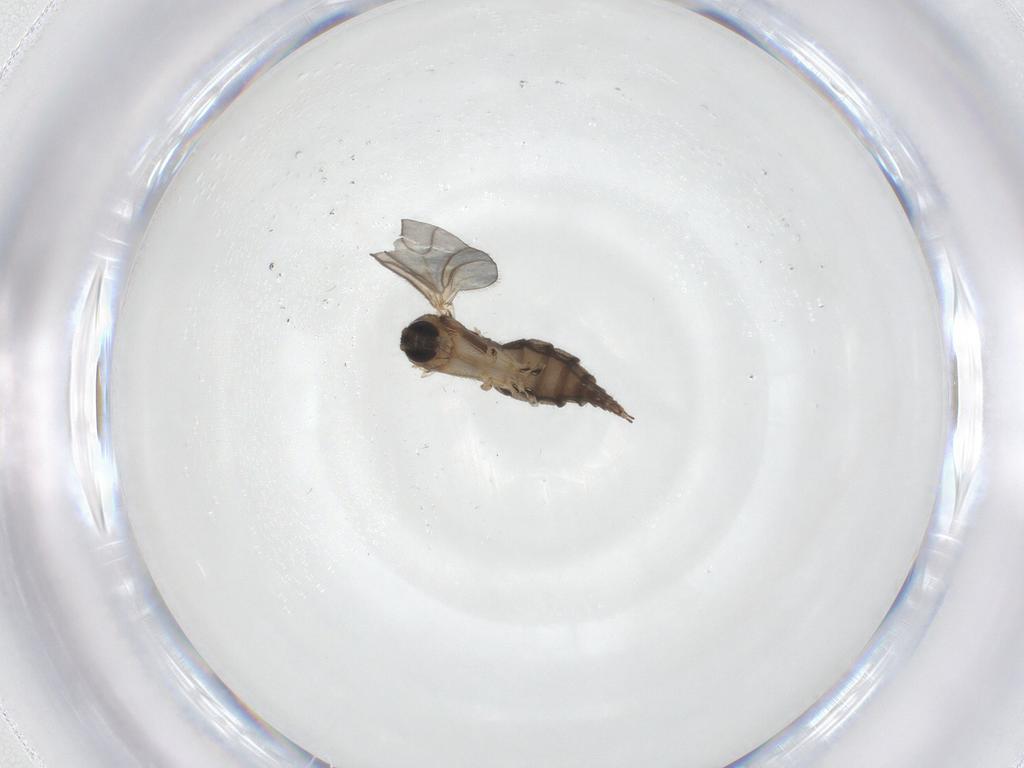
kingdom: Animalia
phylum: Arthropoda
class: Insecta
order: Diptera
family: Sciaridae
